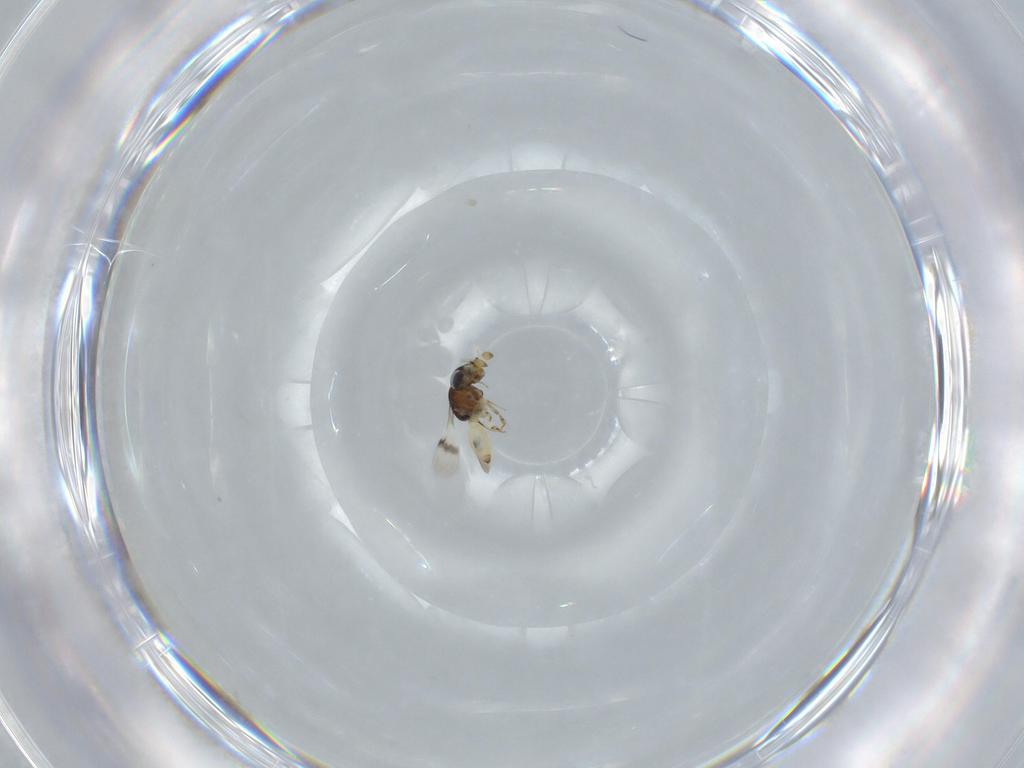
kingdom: Animalia
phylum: Arthropoda
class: Insecta
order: Hymenoptera
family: Scelionidae
